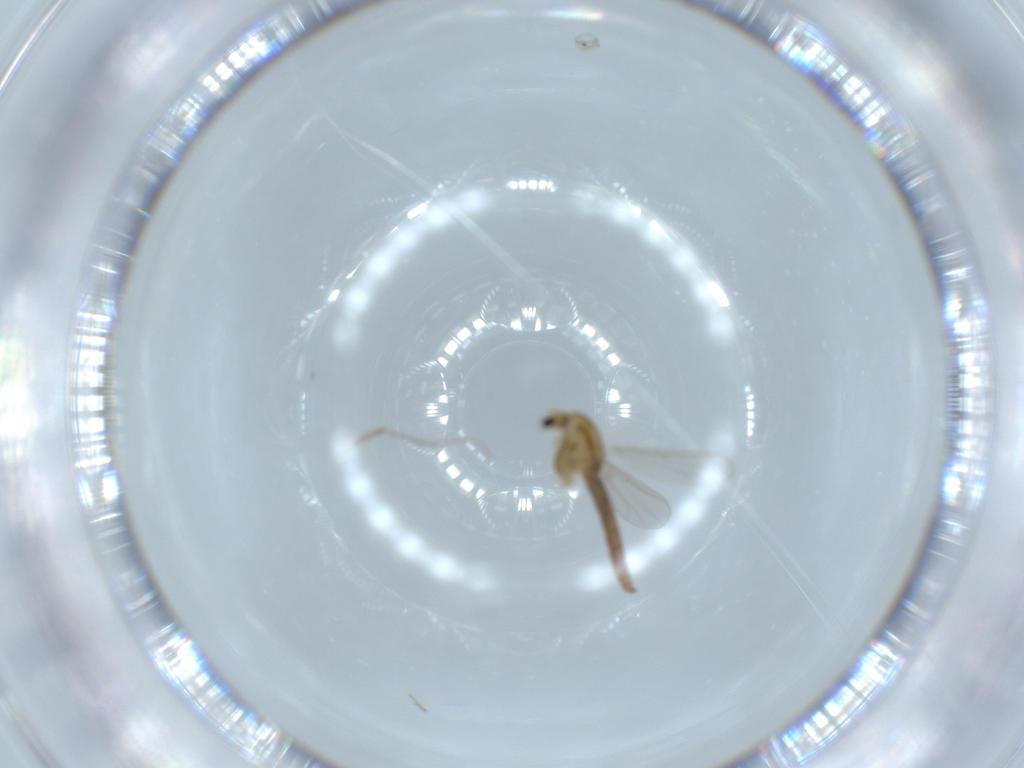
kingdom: Animalia
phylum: Arthropoda
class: Insecta
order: Diptera
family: Chironomidae
